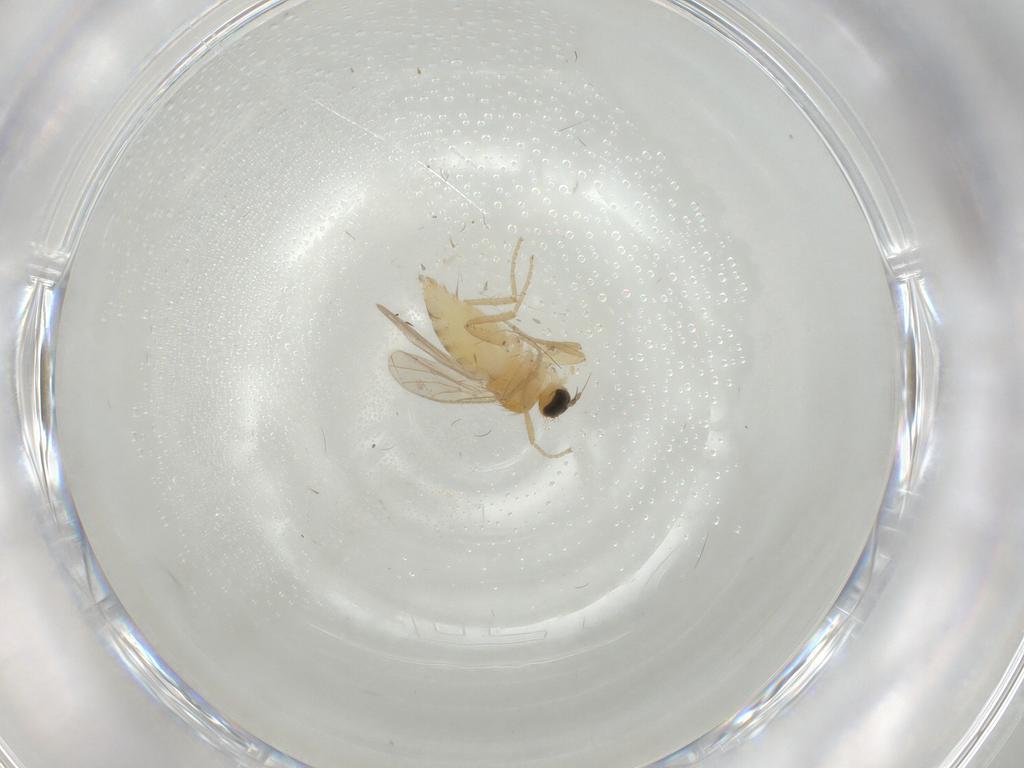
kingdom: Animalia
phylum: Arthropoda
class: Insecta
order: Diptera
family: Hybotidae
